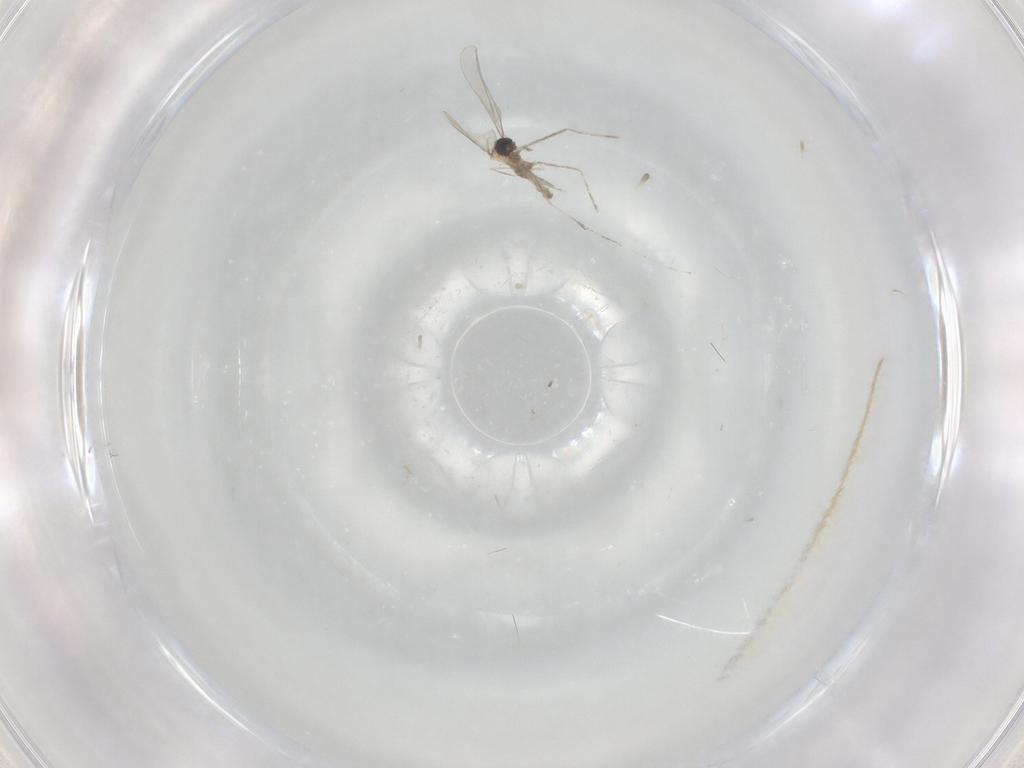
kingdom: Animalia
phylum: Arthropoda
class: Insecta
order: Diptera
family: Cecidomyiidae
